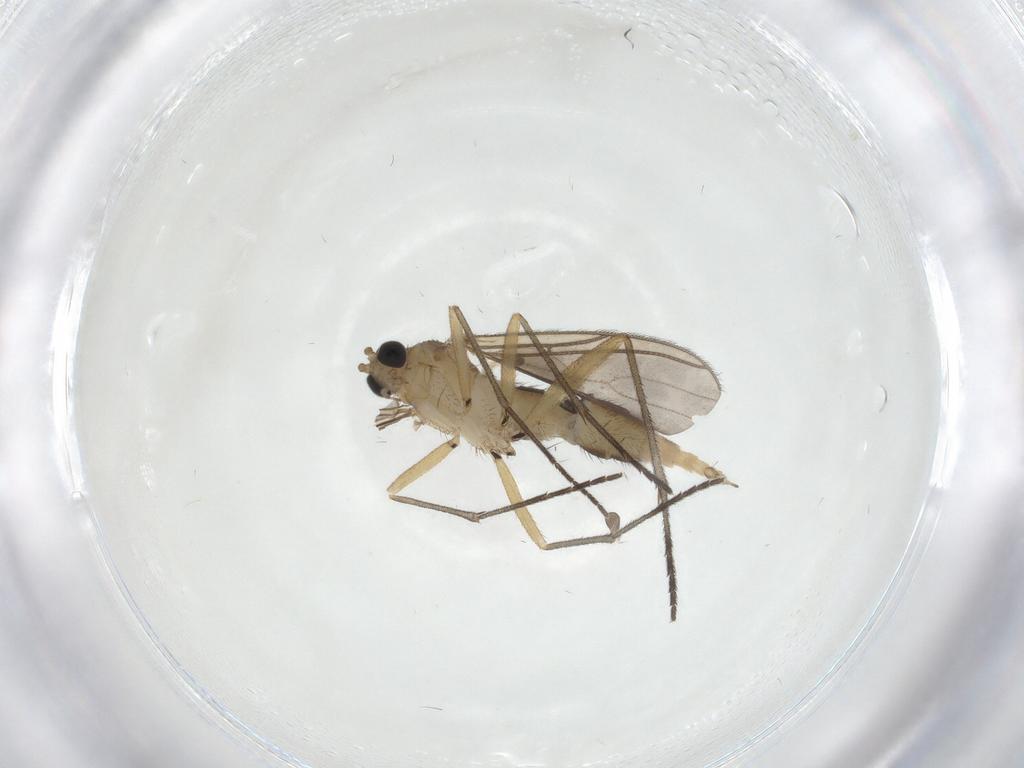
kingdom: Animalia
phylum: Arthropoda
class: Insecta
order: Diptera
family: Sciaridae
